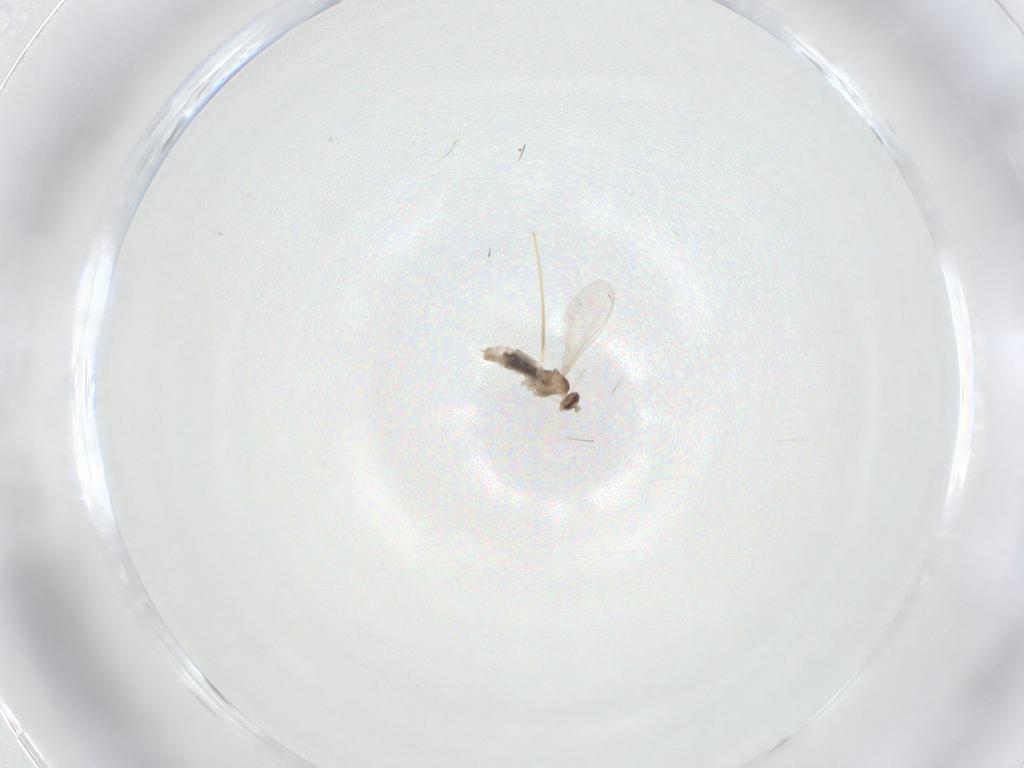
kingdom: Animalia
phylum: Arthropoda
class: Insecta
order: Diptera
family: Cecidomyiidae
